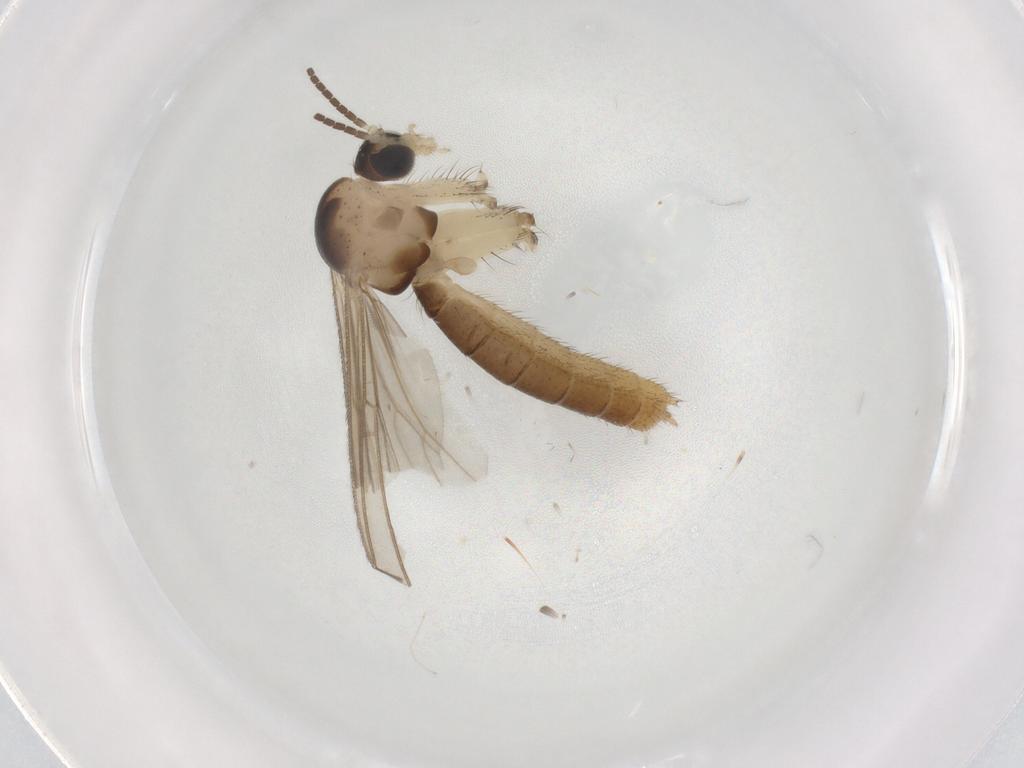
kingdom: Animalia
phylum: Arthropoda
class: Insecta
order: Diptera
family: Mycetophilidae
